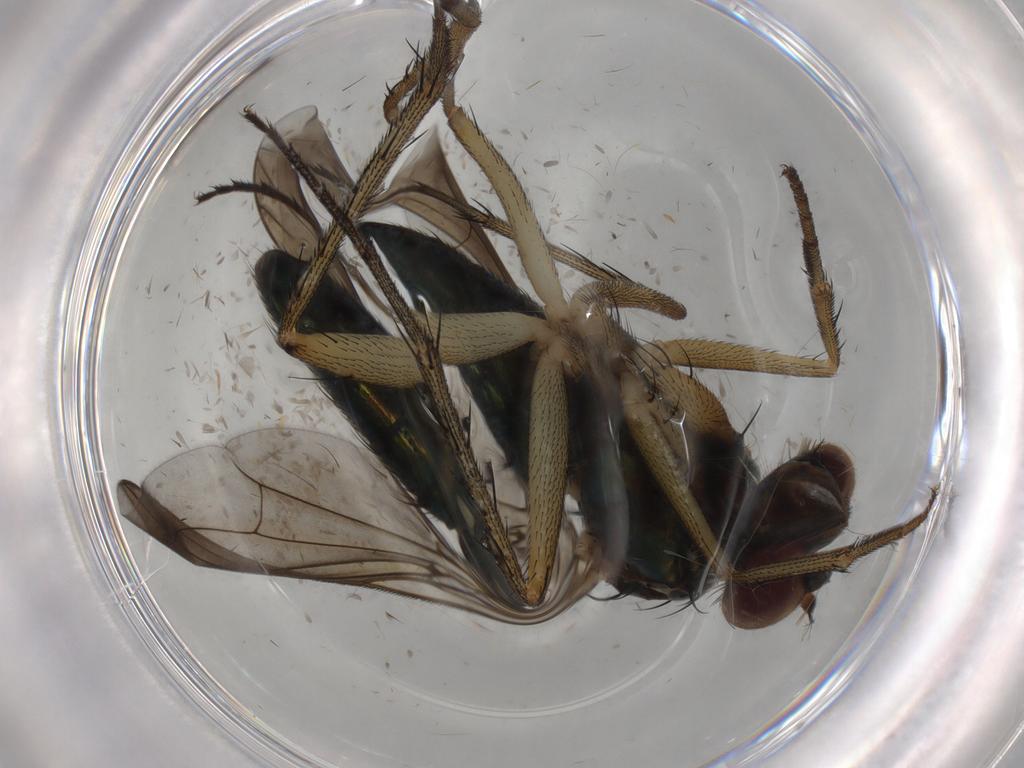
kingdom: Animalia
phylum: Arthropoda
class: Insecta
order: Diptera
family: Dolichopodidae
